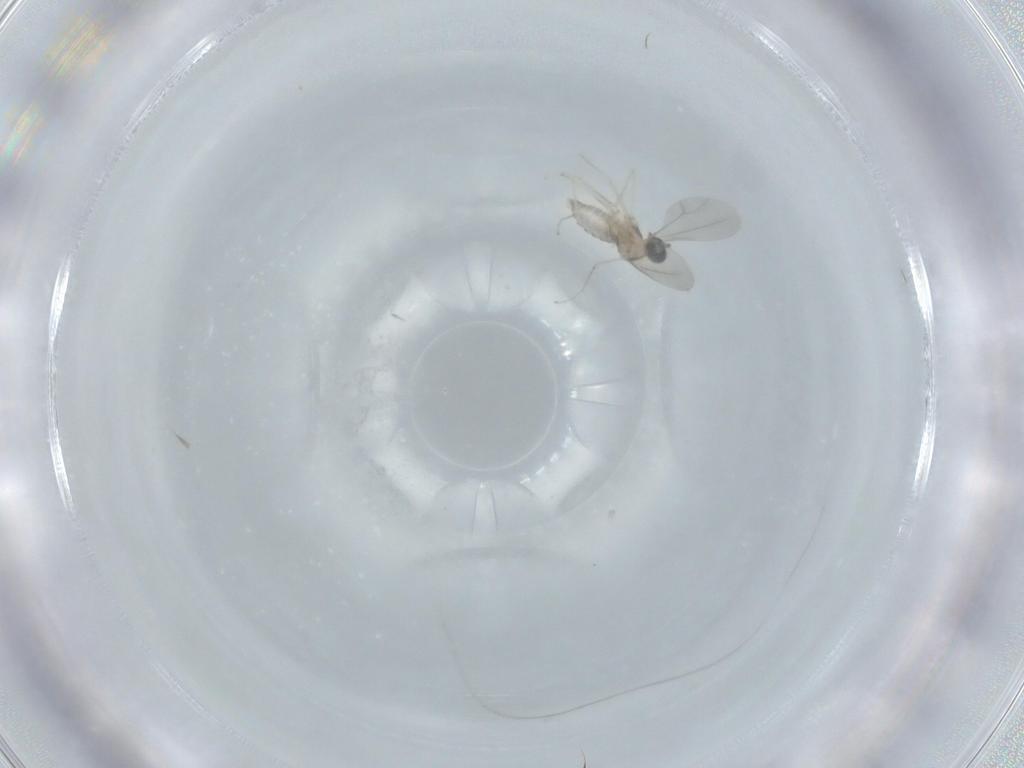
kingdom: Animalia
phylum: Arthropoda
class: Insecta
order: Diptera
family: Cecidomyiidae
